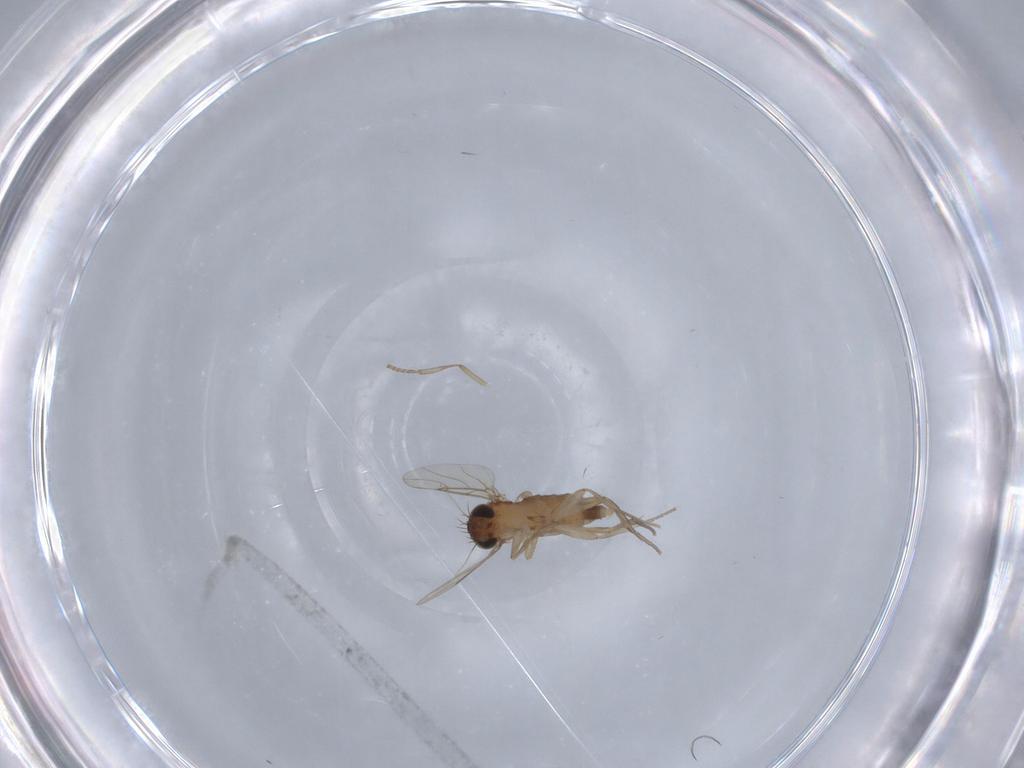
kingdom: Animalia
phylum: Arthropoda
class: Insecta
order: Diptera
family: Phoridae
